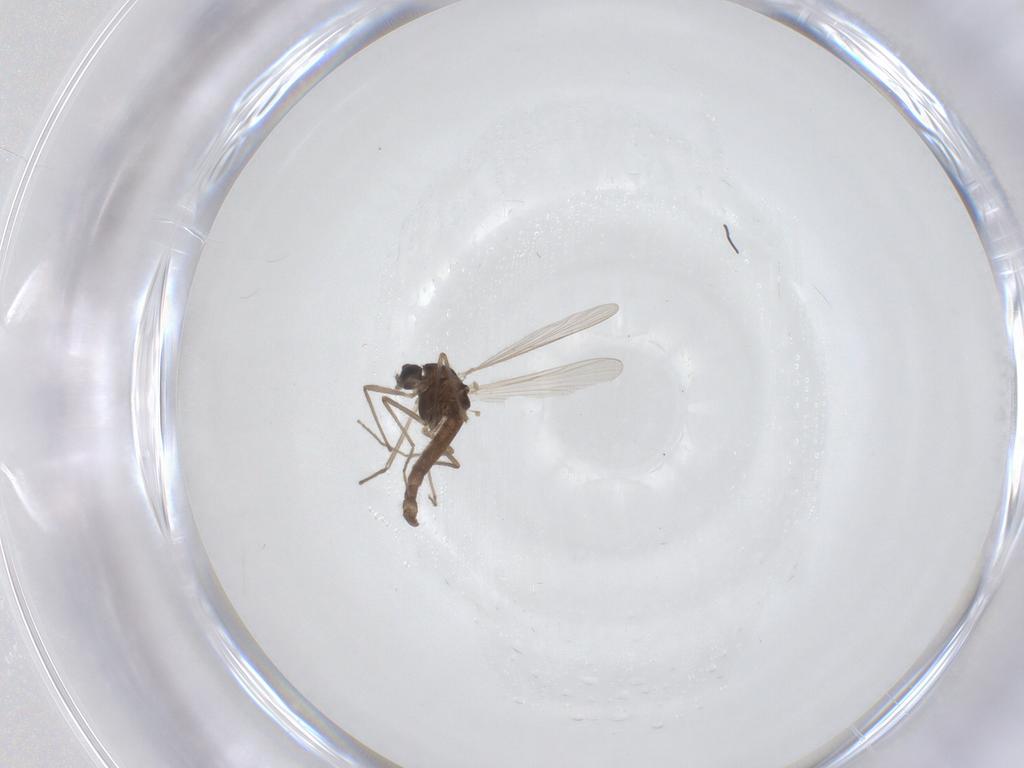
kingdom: Animalia
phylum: Arthropoda
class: Insecta
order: Diptera
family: Chironomidae
